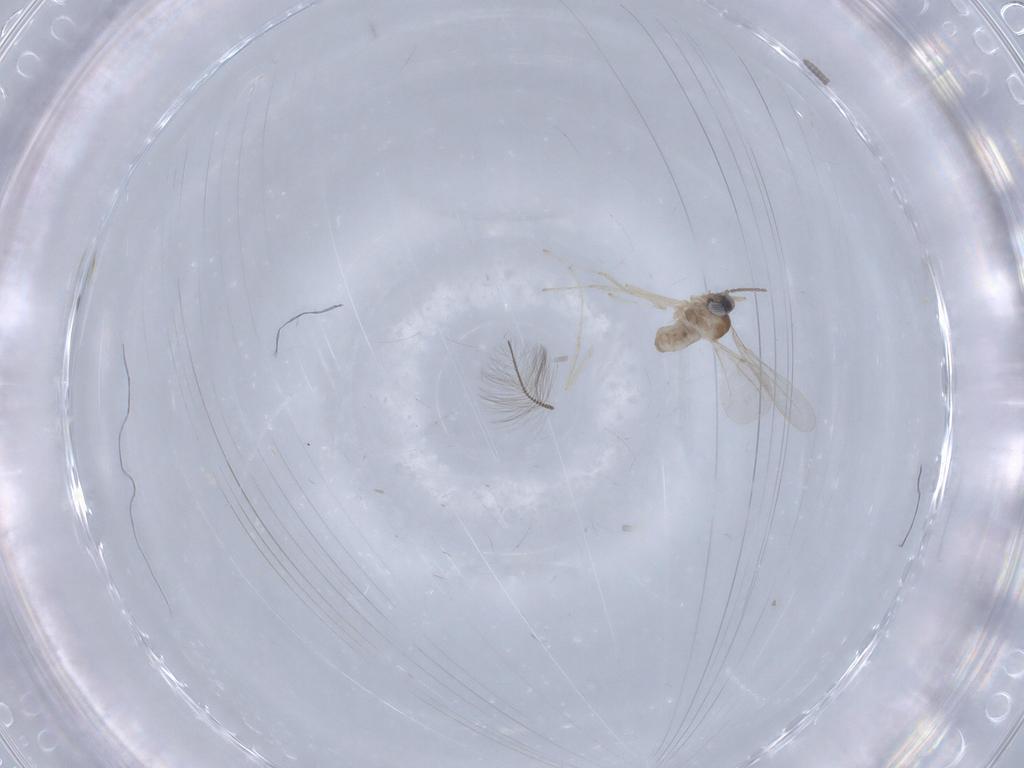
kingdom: Animalia
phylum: Arthropoda
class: Insecta
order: Diptera
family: Cecidomyiidae
